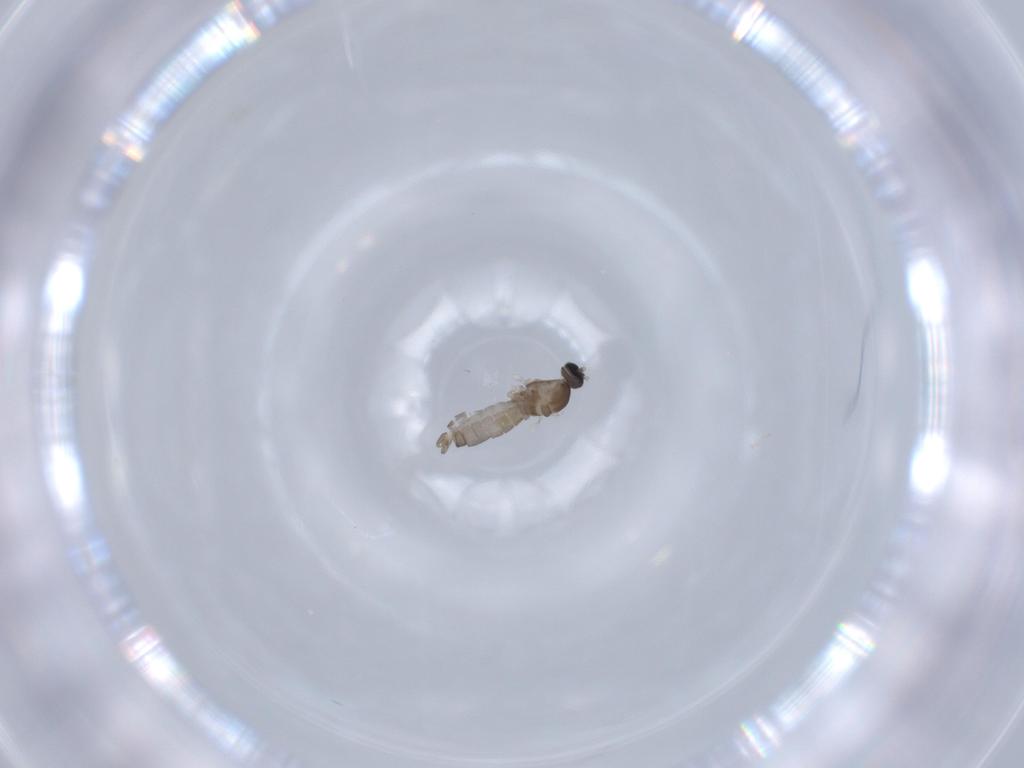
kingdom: Animalia
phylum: Arthropoda
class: Insecta
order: Diptera
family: Cecidomyiidae
